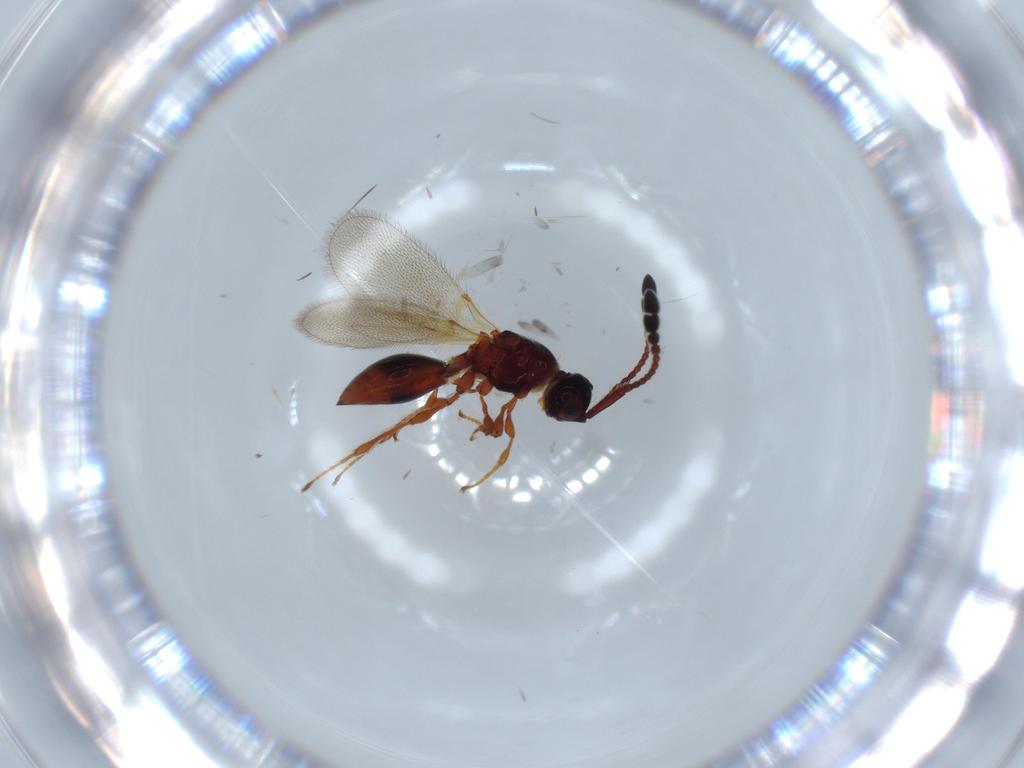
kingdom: Animalia
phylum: Arthropoda
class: Insecta
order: Hymenoptera
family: Diapriidae
